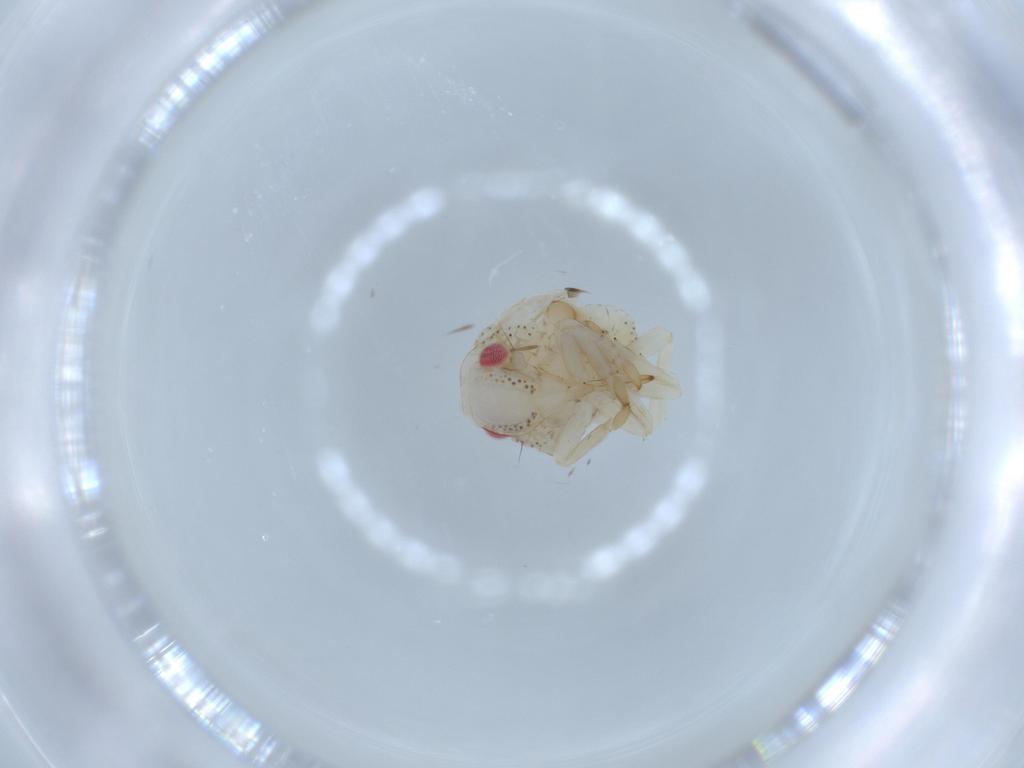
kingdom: Animalia
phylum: Arthropoda
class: Insecta
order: Hemiptera
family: Acanaloniidae
